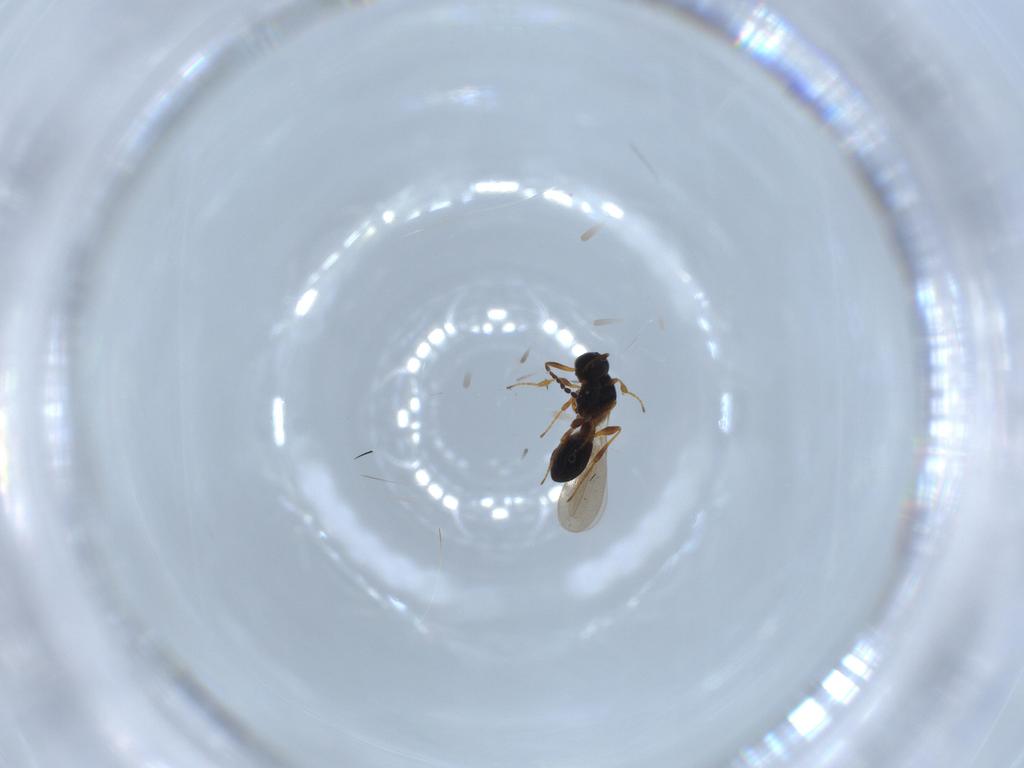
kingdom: Animalia
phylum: Arthropoda
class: Insecta
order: Hymenoptera
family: Platygastridae
